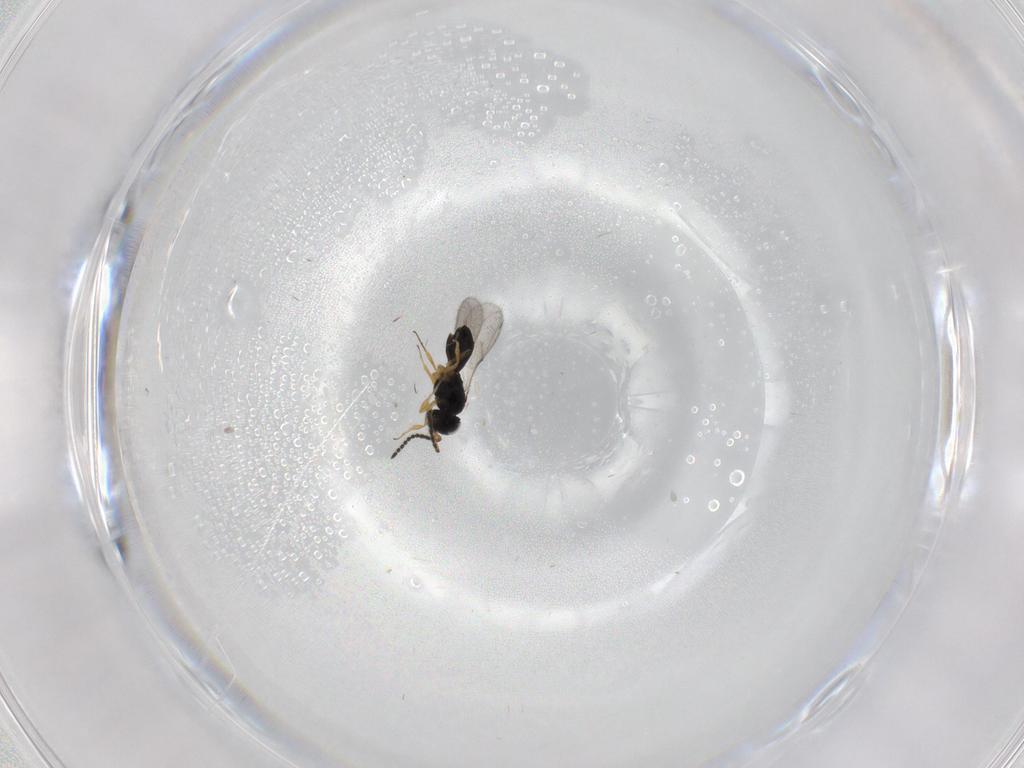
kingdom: Animalia
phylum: Arthropoda
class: Insecta
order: Hymenoptera
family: Scelionidae
